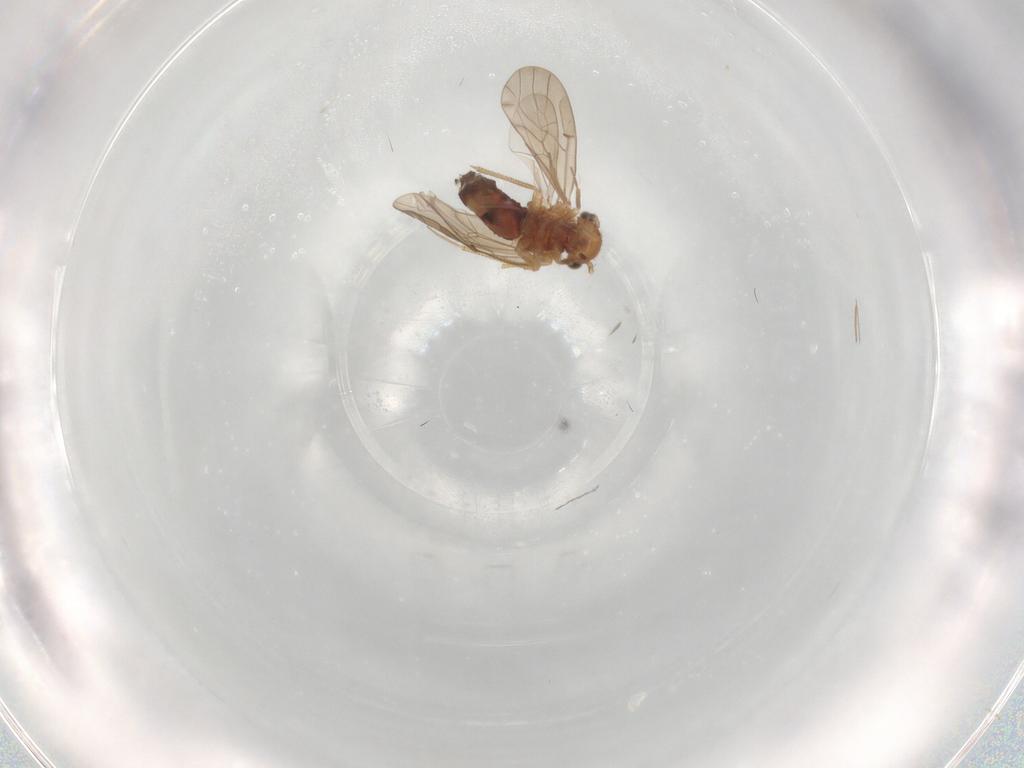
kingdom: Animalia
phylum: Arthropoda
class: Insecta
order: Psocodea
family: Ectopsocidae
